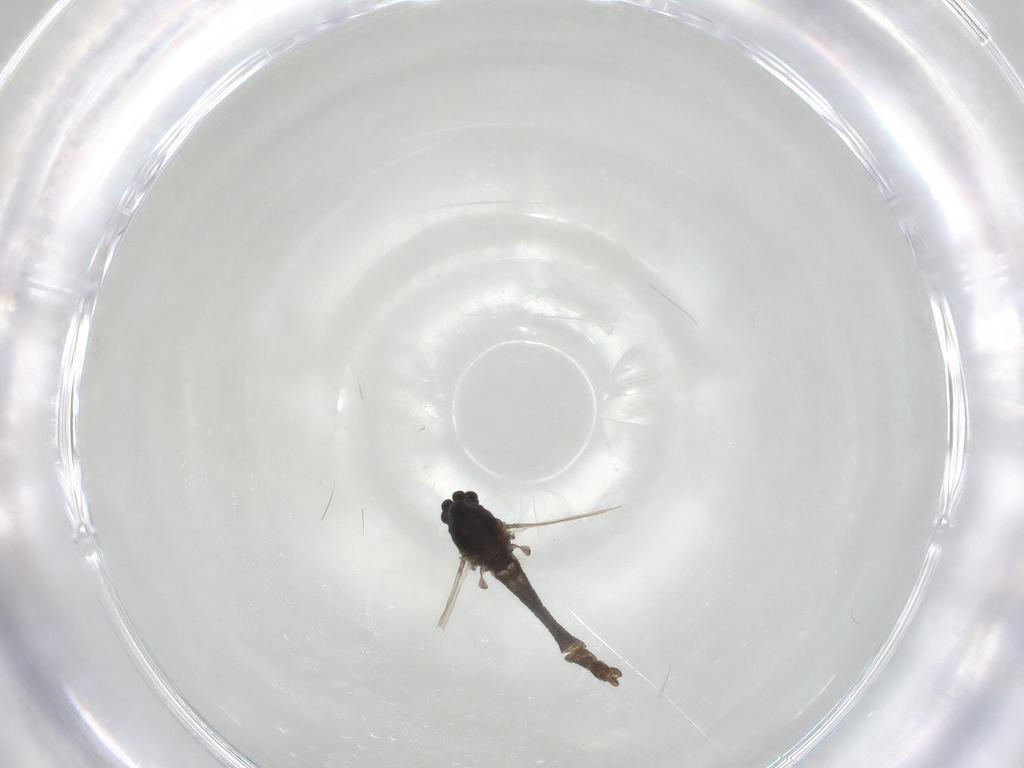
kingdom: Animalia
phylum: Arthropoda
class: Insecta
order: Diptera
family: Chironomidae
